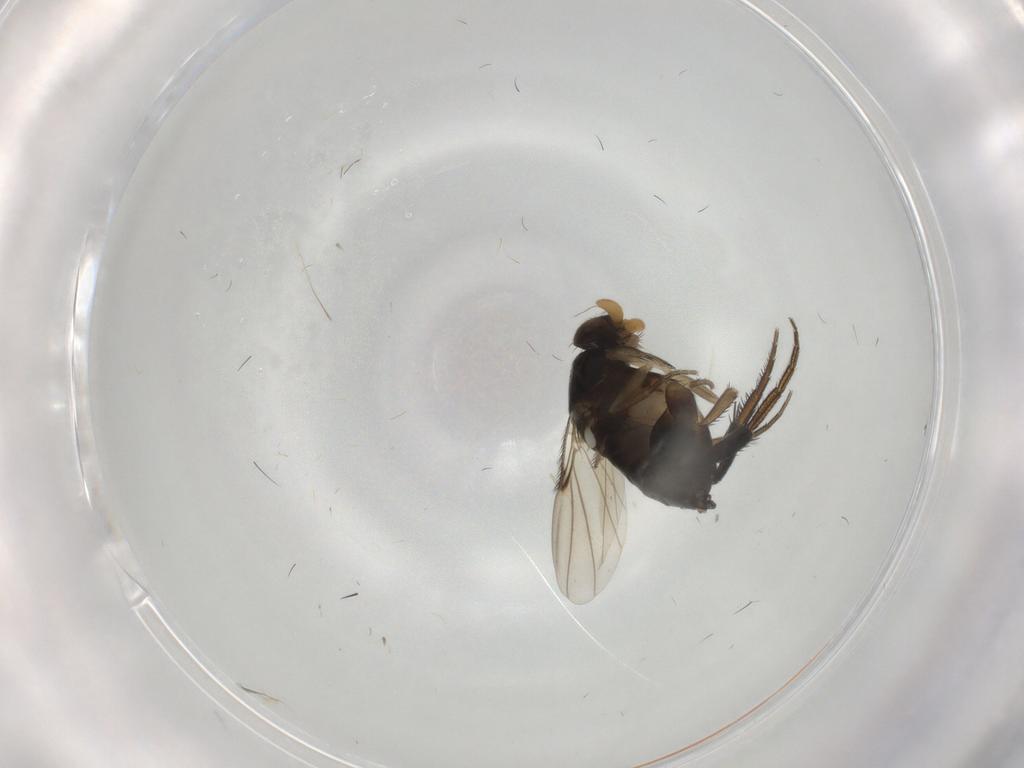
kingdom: Animalia
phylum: Arthropoda
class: Insecta
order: Diptera
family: Phoridae
